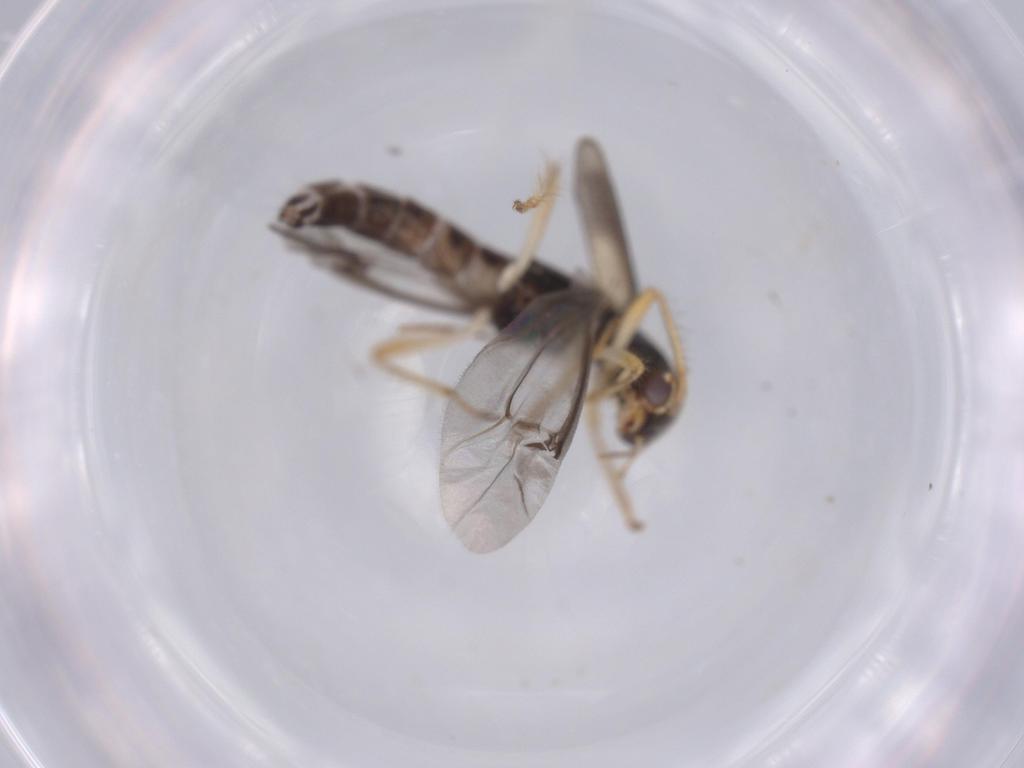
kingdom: Animalia
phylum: Arthropoda
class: Insecta
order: Coleoptera
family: Cleridae
